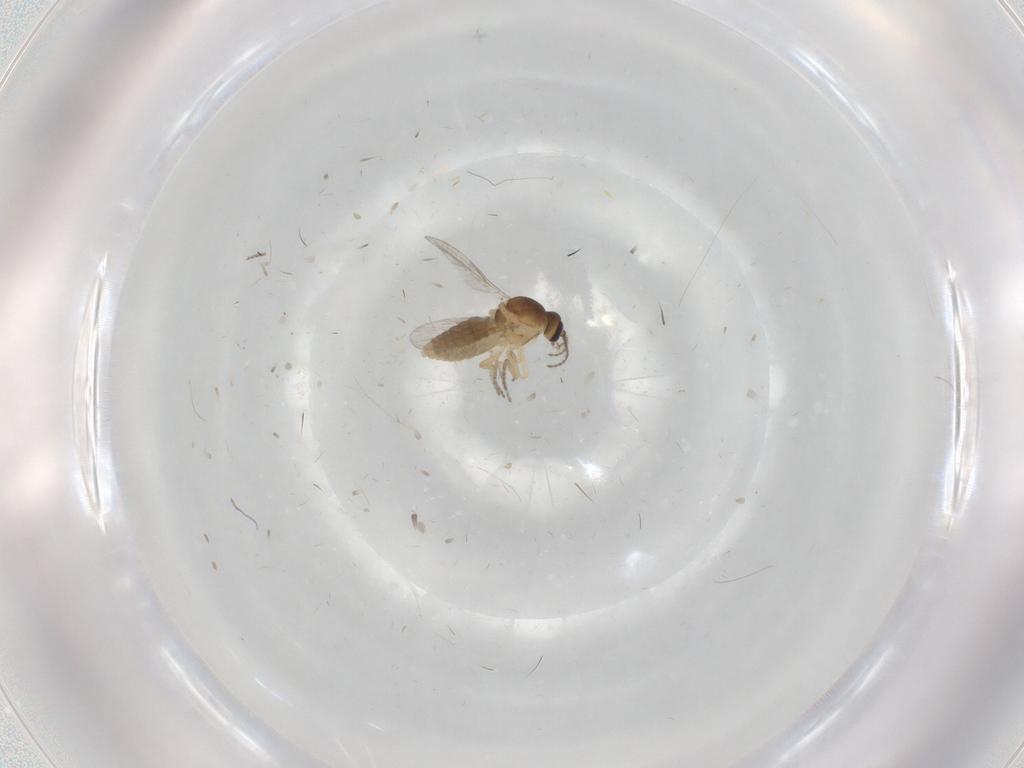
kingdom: Animalia
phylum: Arthropoda
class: Insecta
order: Diptera
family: Ceratopogonidae
